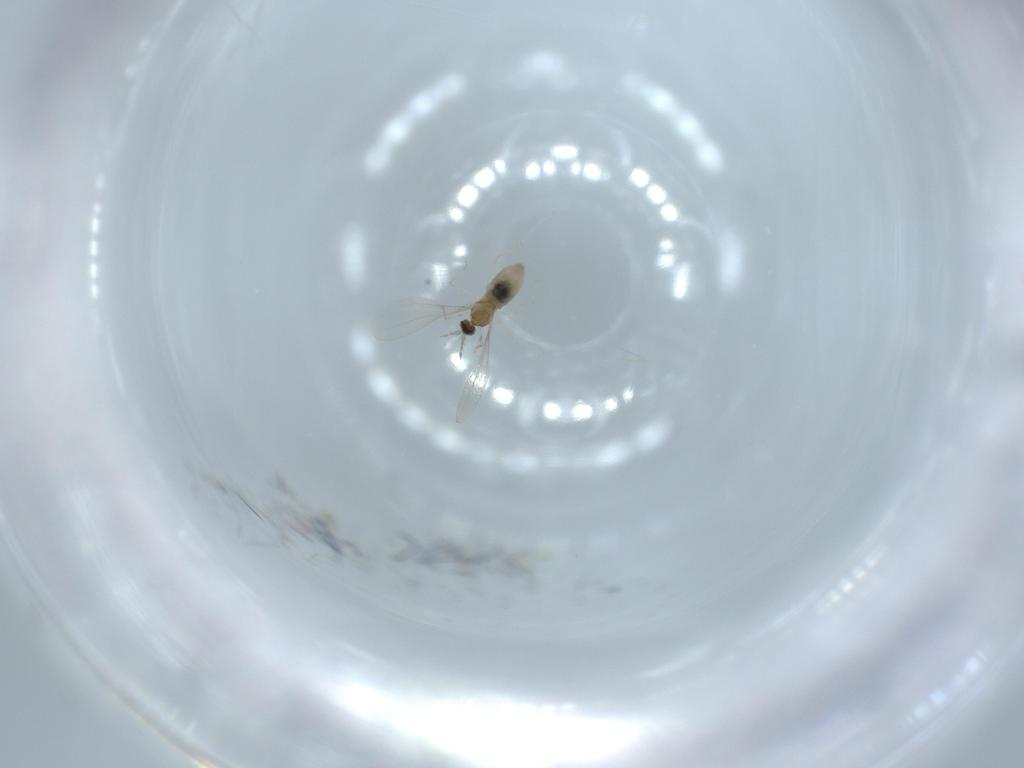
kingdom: Animalia
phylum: Arthropoda
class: Insecta
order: Diptera
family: Cecidomyiidae
